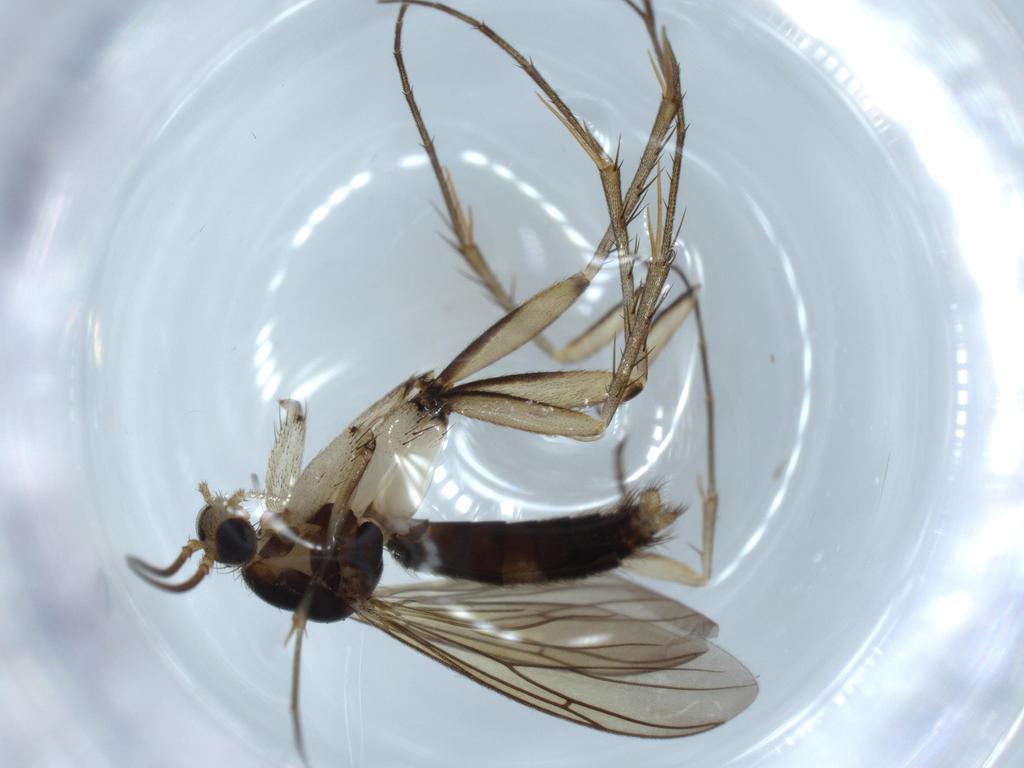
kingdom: Animalia
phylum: Arthropoda
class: Insecta
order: Diptera
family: Mycetophilidae
